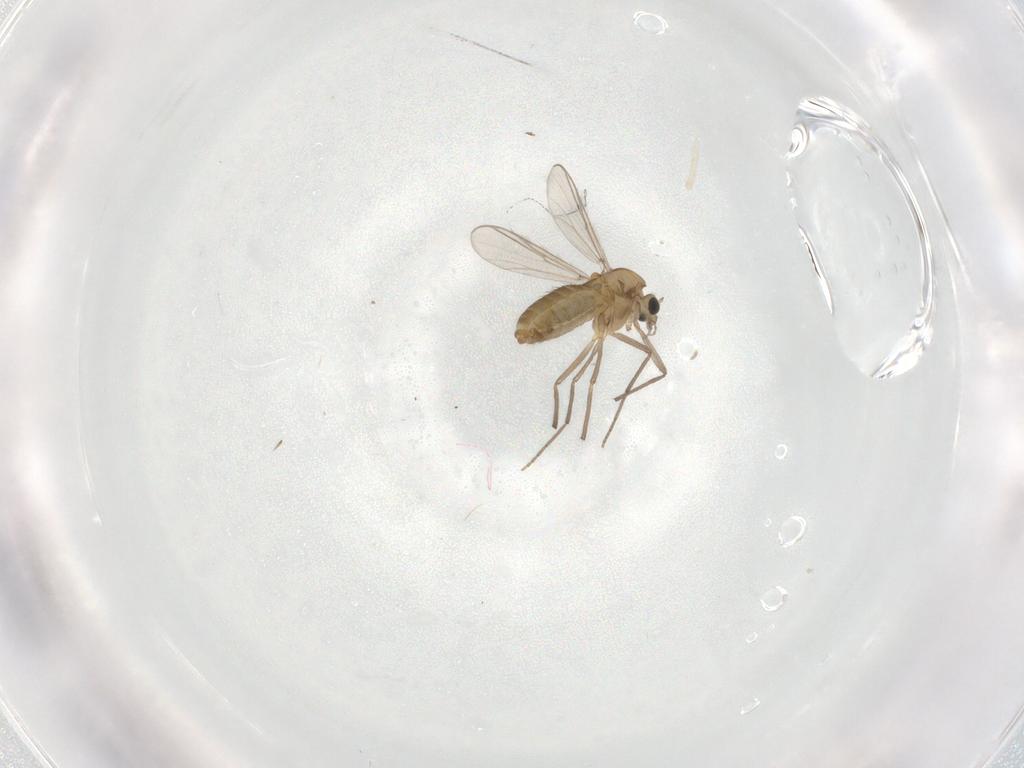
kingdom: Animalia
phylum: Arthropoda
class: Insecta
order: Diptera
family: Chironomidae
